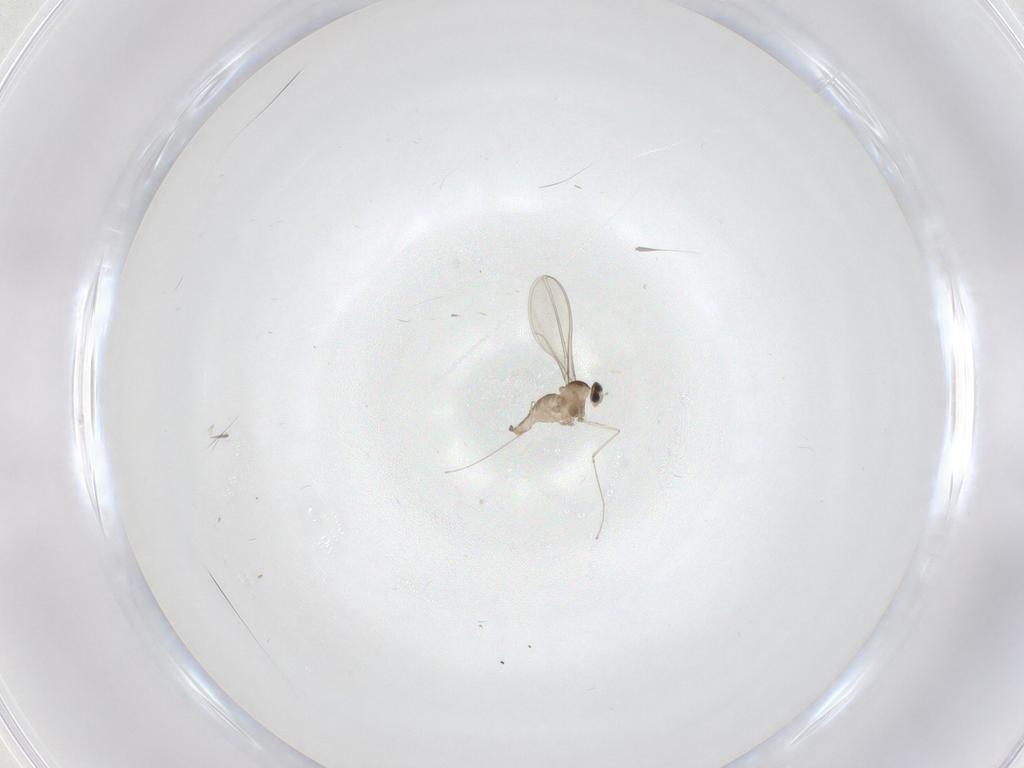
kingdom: Animalia
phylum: Arthropoda
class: Insecta
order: Diptera
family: Cecidomyiidae
